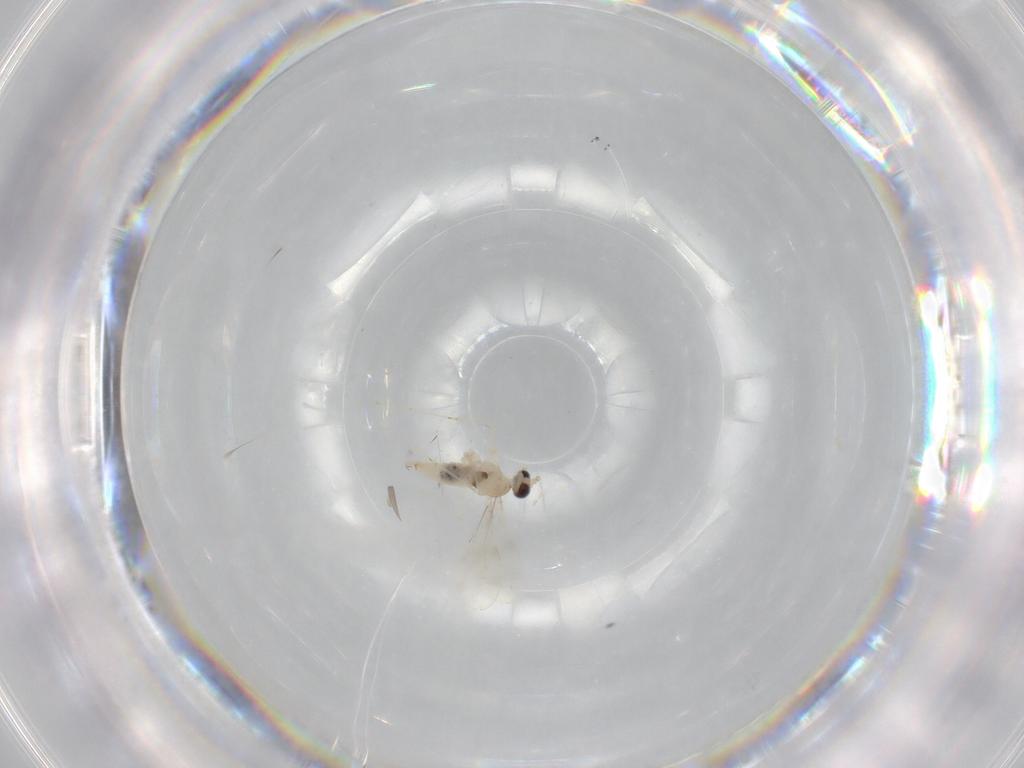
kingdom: Animalia
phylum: Arthropoda
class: Insecta
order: Diptera
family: Cecidomyiidae
